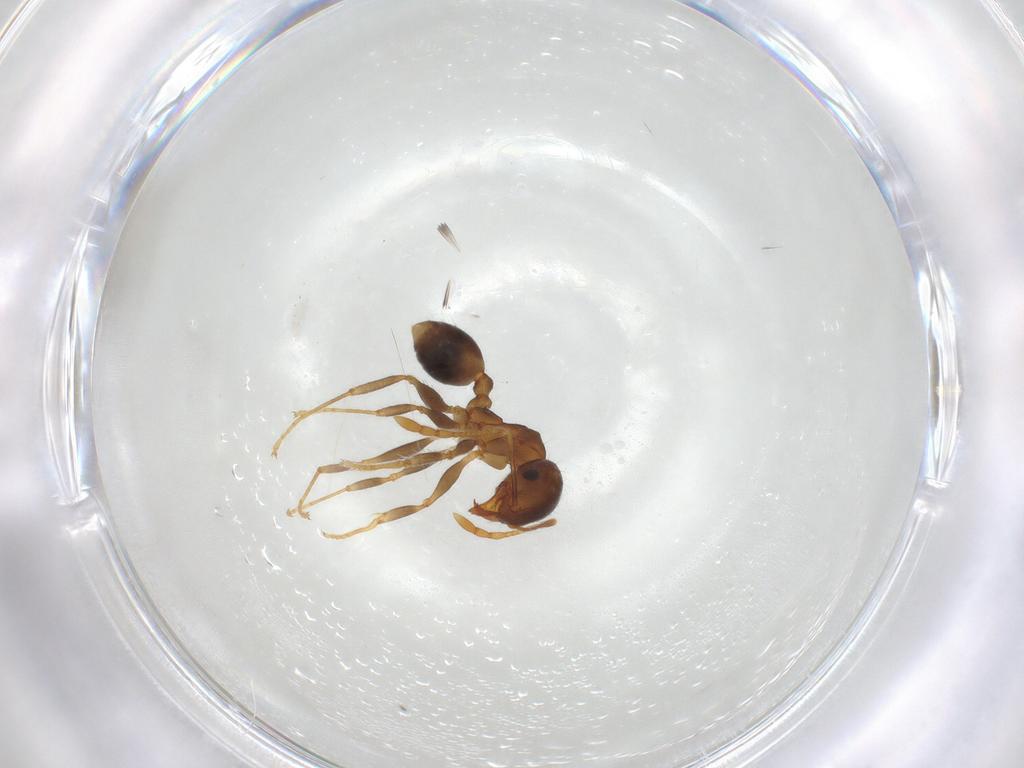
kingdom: Animalia
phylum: Arthropoda
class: Insecta
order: Hymenoptera
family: Formicidae
